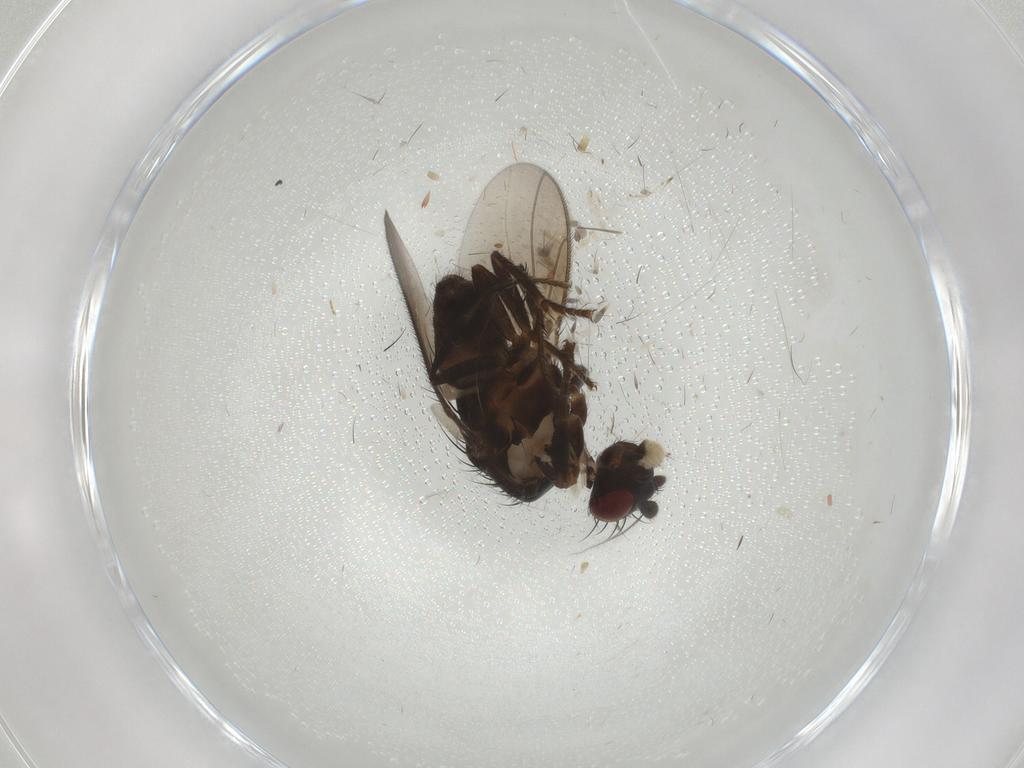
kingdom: Animalia
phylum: Arthropoda
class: Insecta
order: Diptera
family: Sphaeroceridae
